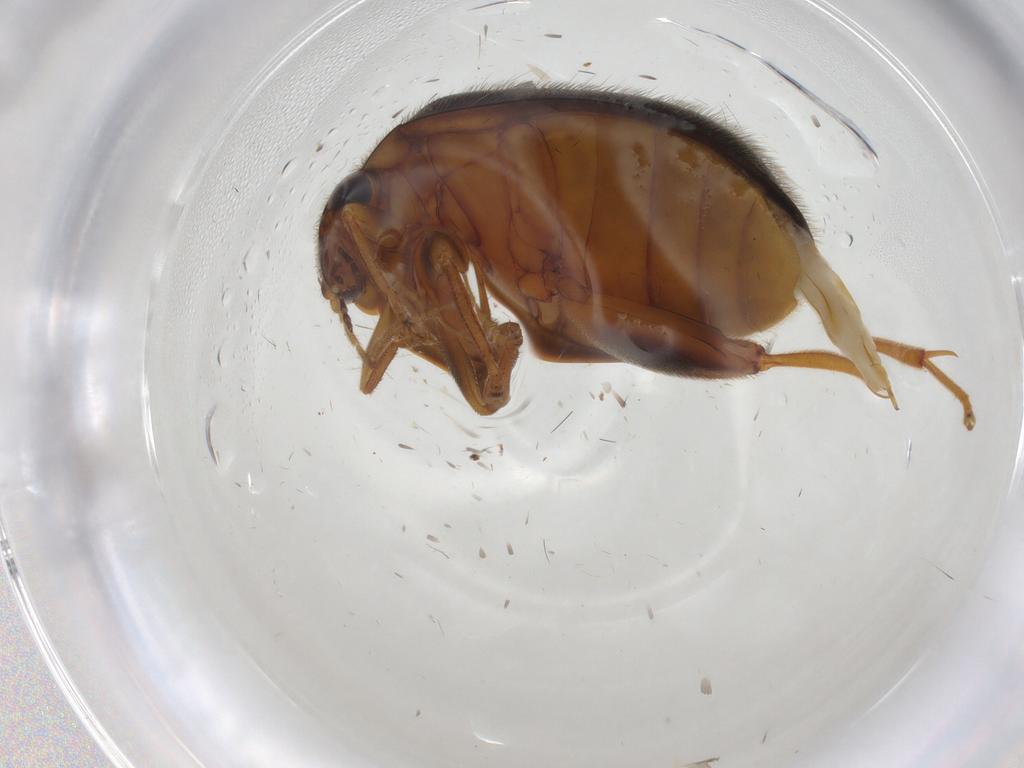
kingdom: Animalia
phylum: Arthropoda
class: Insecta
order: Coleoptera
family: Scirtidae
